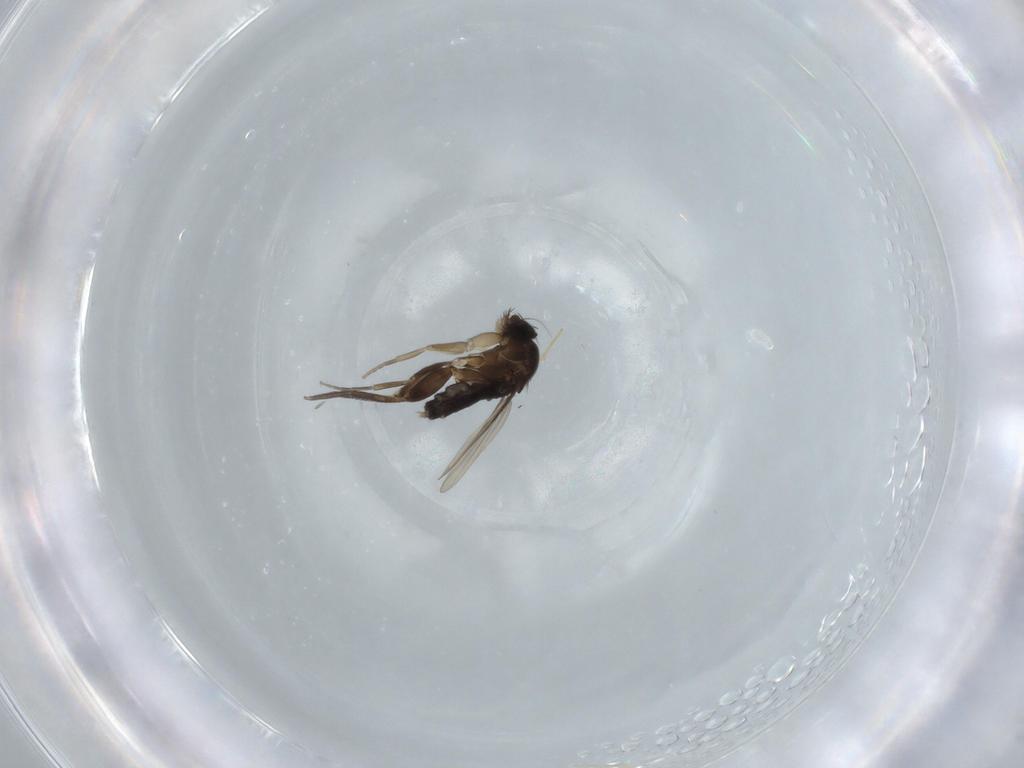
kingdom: Animalia
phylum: Arthropoda
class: Insecta
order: Diptera
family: Phoridae
